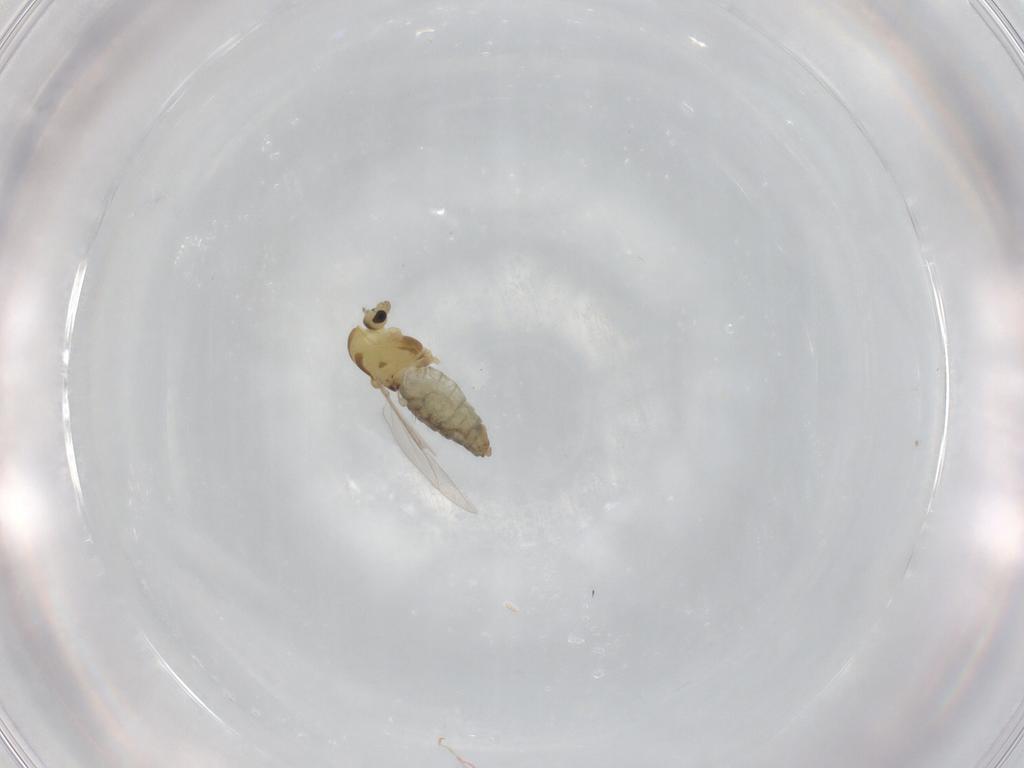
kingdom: Animalia
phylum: Arthropoda
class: Insecta
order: Diptera
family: Chironomidae
